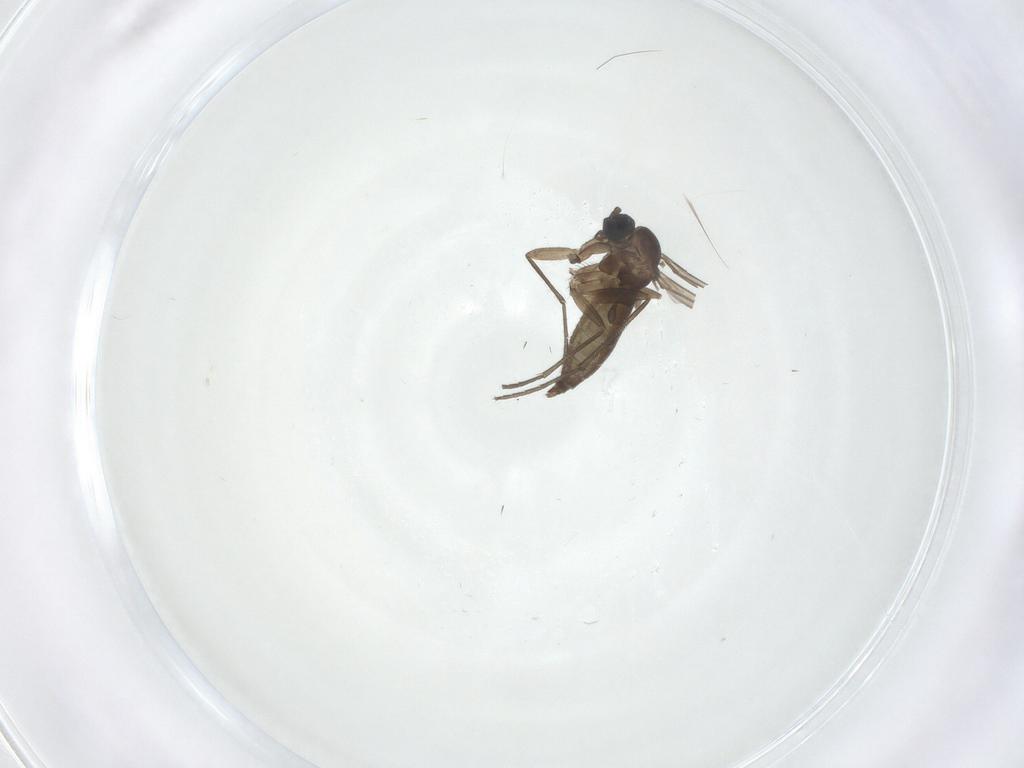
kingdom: Animalia
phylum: Arthropoda
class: Insecta
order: Diptera
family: Sciaridae
